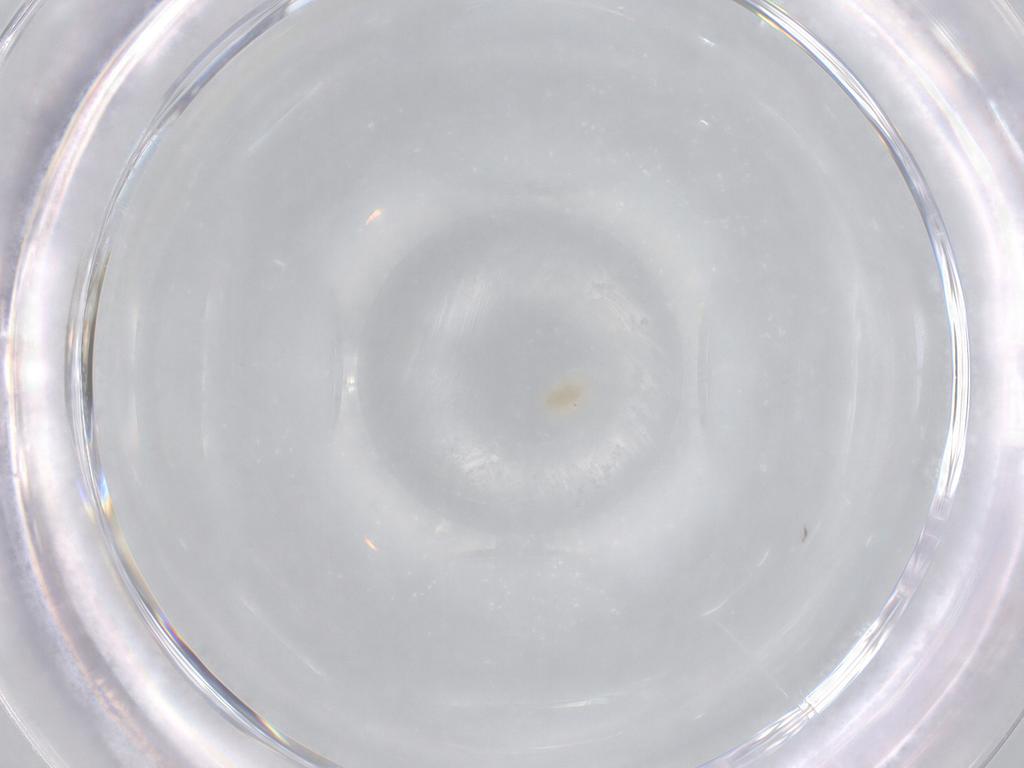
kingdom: Animalia
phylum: Arthropoda
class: Arachnida
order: Trombidiformes
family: Eupodidae
